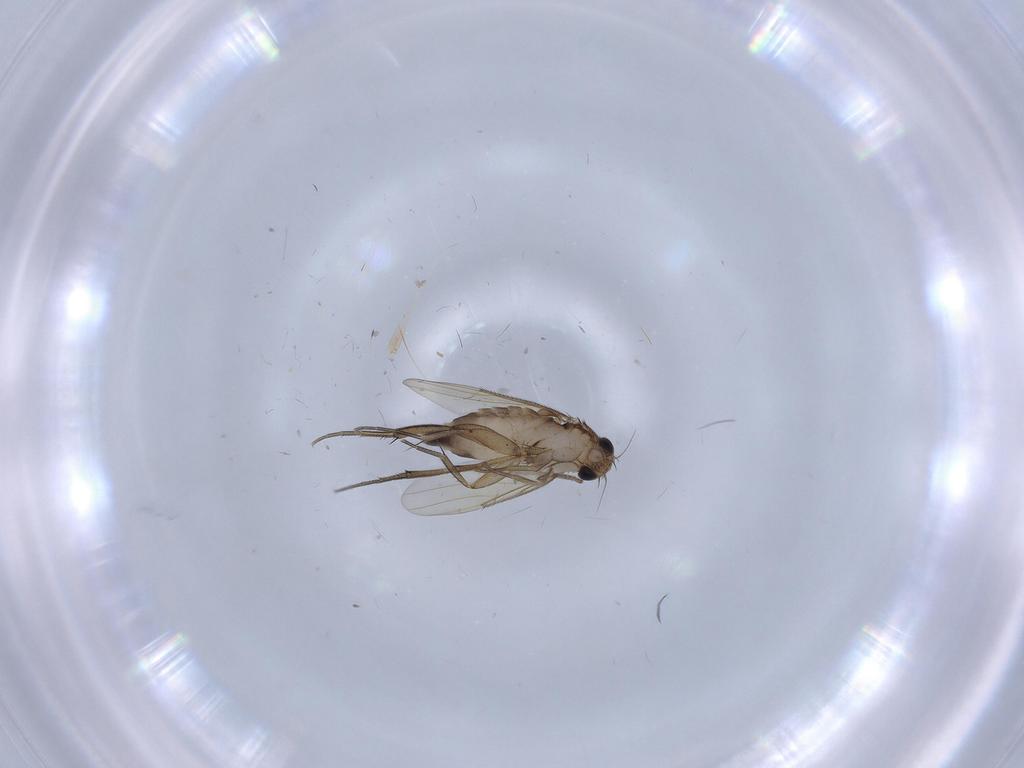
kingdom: Animalia
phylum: Arthropoda
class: Insecta
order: Diptera
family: Phoridae
